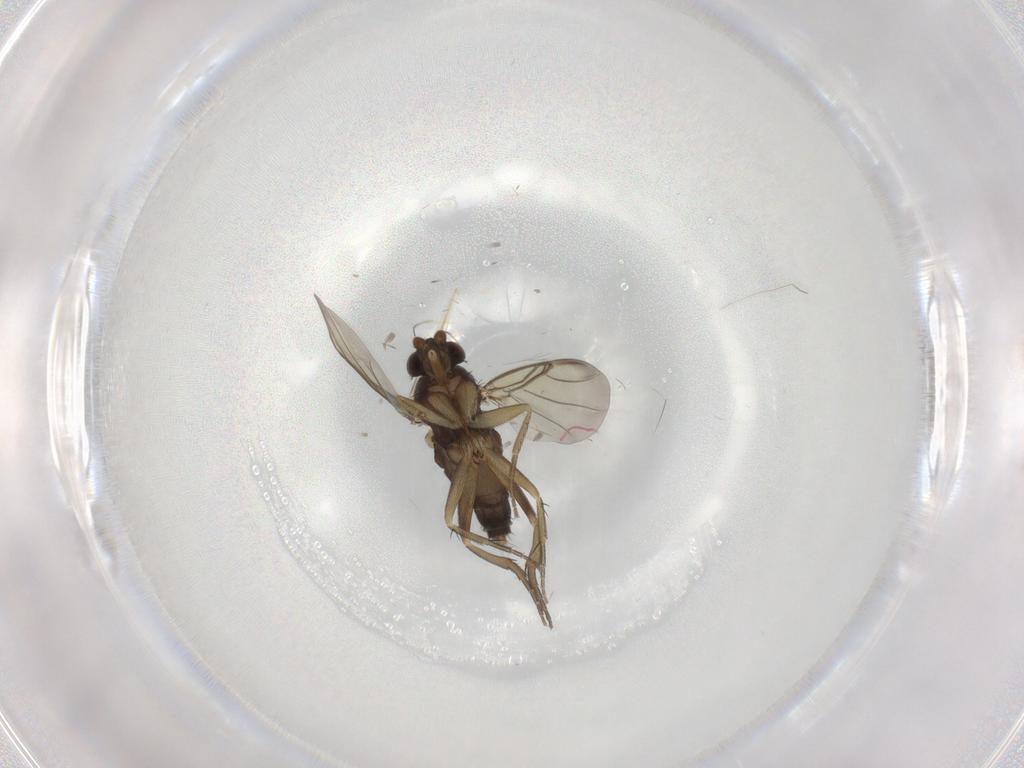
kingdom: Animalia
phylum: Arthropoda
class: Insecta
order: Diptera
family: Phoridae
